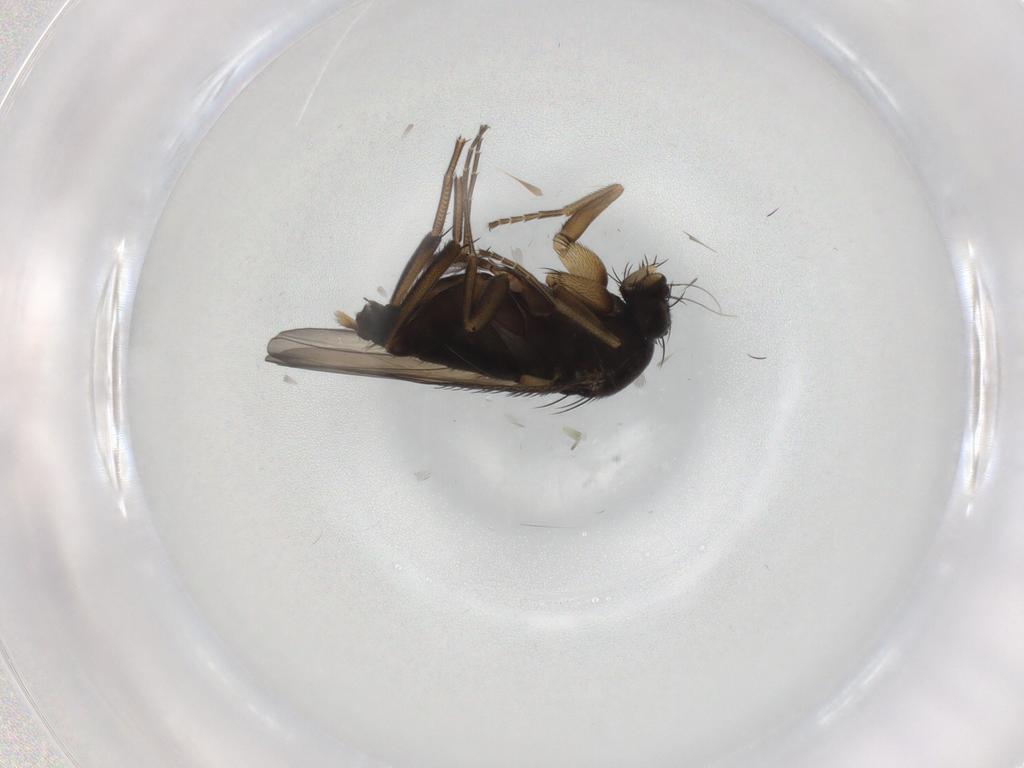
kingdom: Animalia
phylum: Arthropoda
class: Insecta
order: Diptera
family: Phoridae
